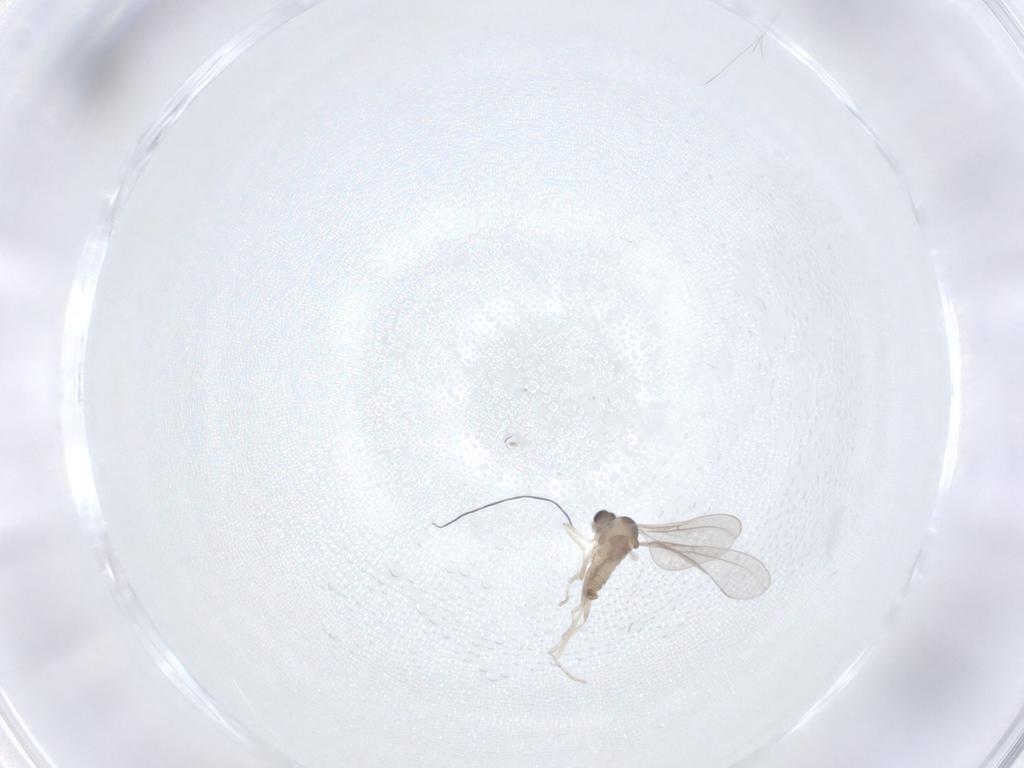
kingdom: Animalia
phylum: Arthropoda
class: Insecta
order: Diptera
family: Cecidomyiidae
